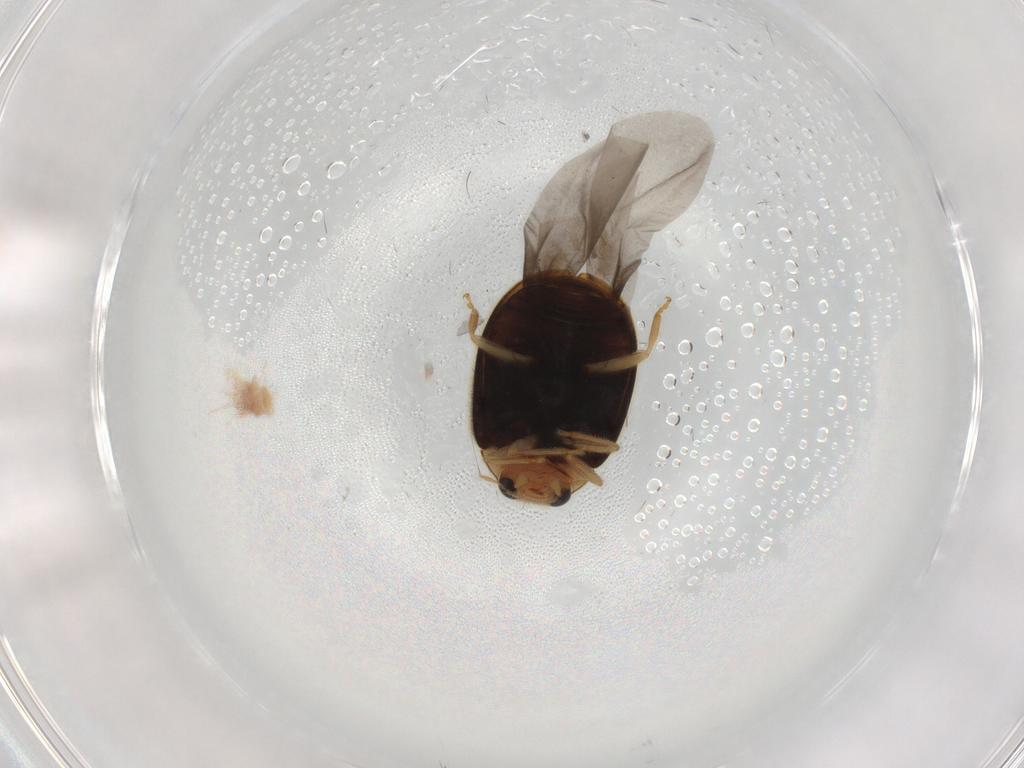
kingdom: Animalia
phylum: Arthropoda
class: Insecta
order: Coleoptera
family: Coccinellidae
